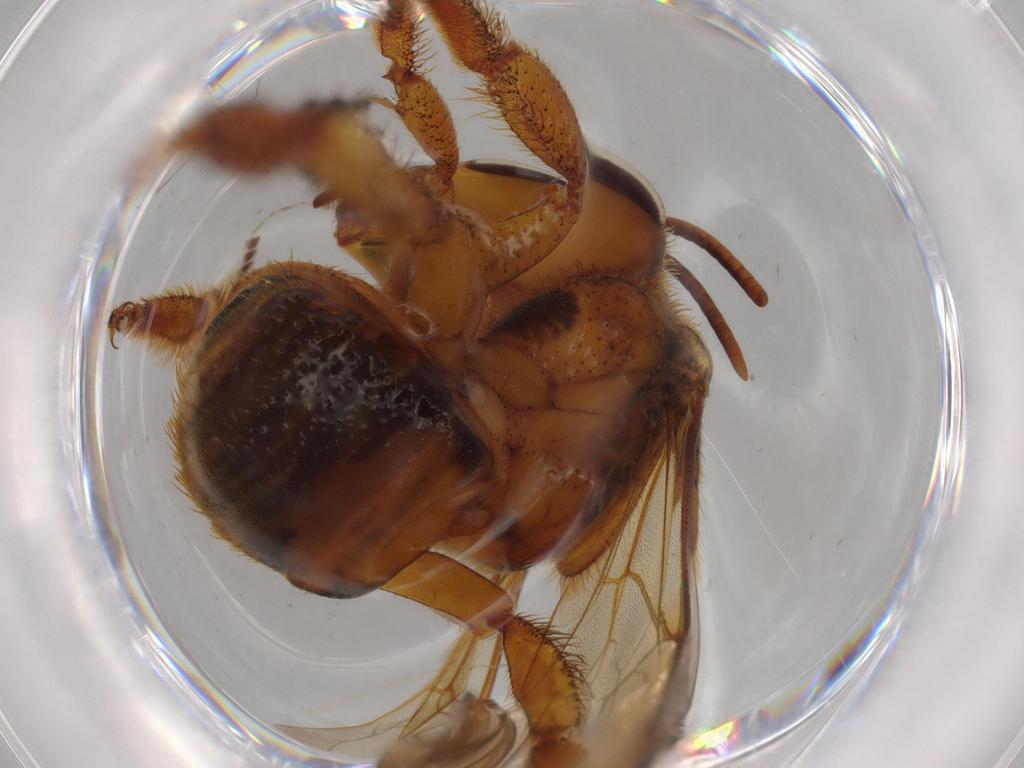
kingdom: Animalia
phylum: Arthropoda
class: Insecta
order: Hymenoptera
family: Apidae
